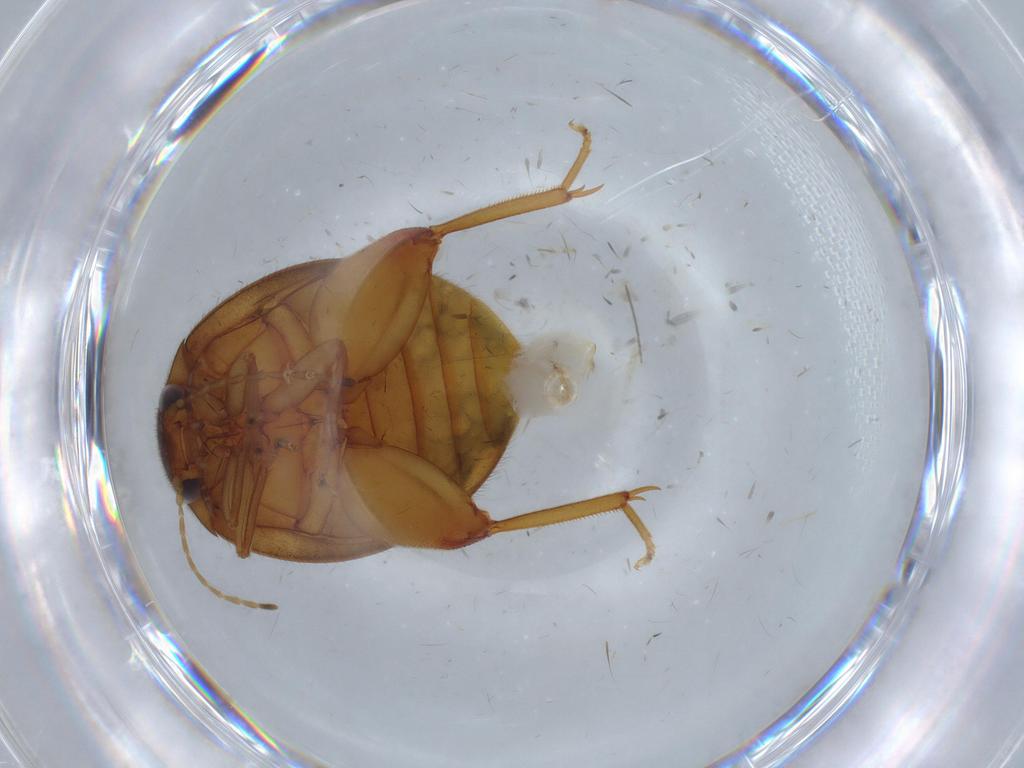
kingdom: Animalia
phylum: Arthropoda
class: Insecta
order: Coleoptera
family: Scirtidae
